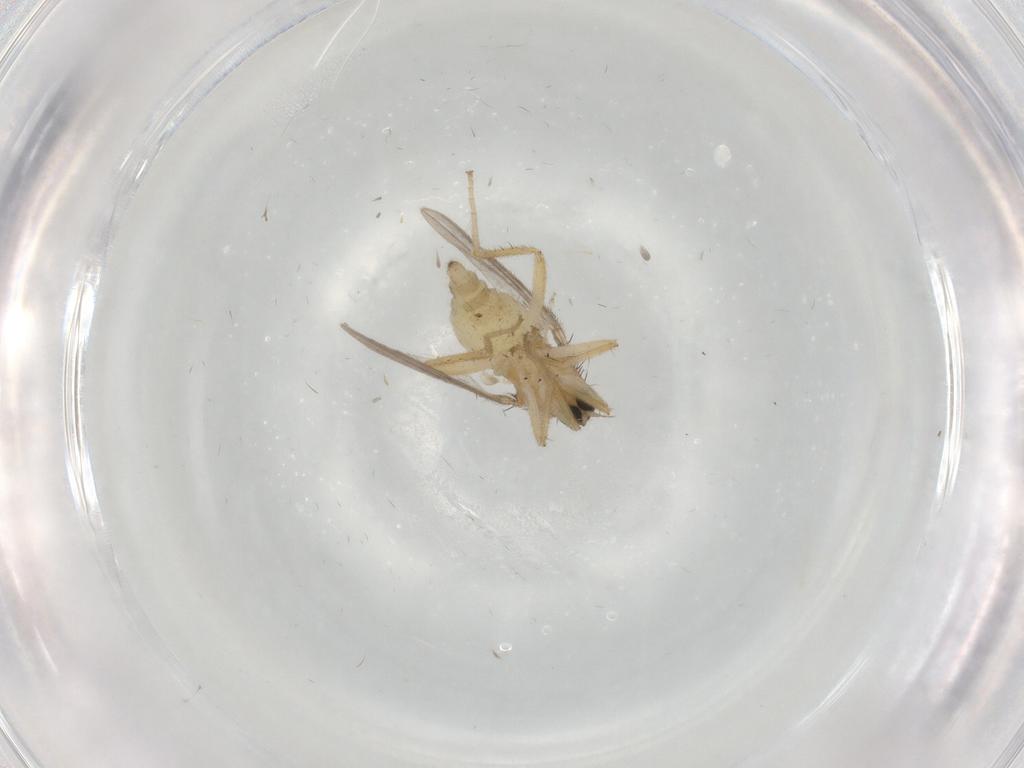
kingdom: Animalia
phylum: Arthropoda
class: Insecta
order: Diptera
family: Hybotidae
